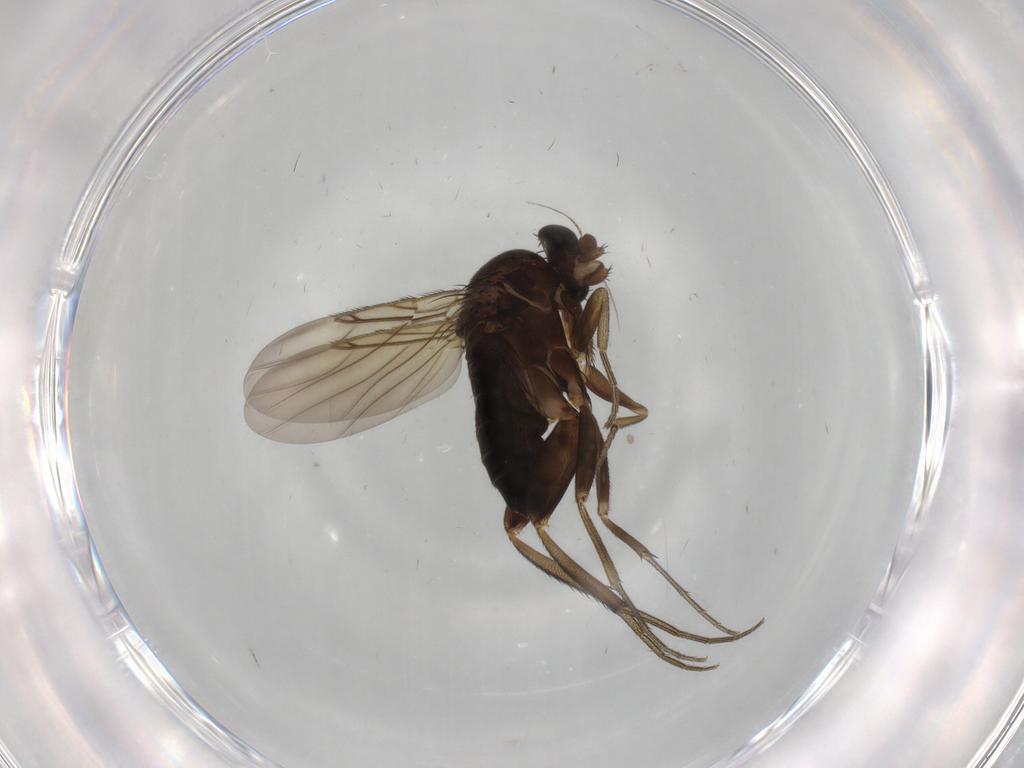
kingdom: Animalia
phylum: Arthropoda
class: Insecta
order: Diptera
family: Phoridae
